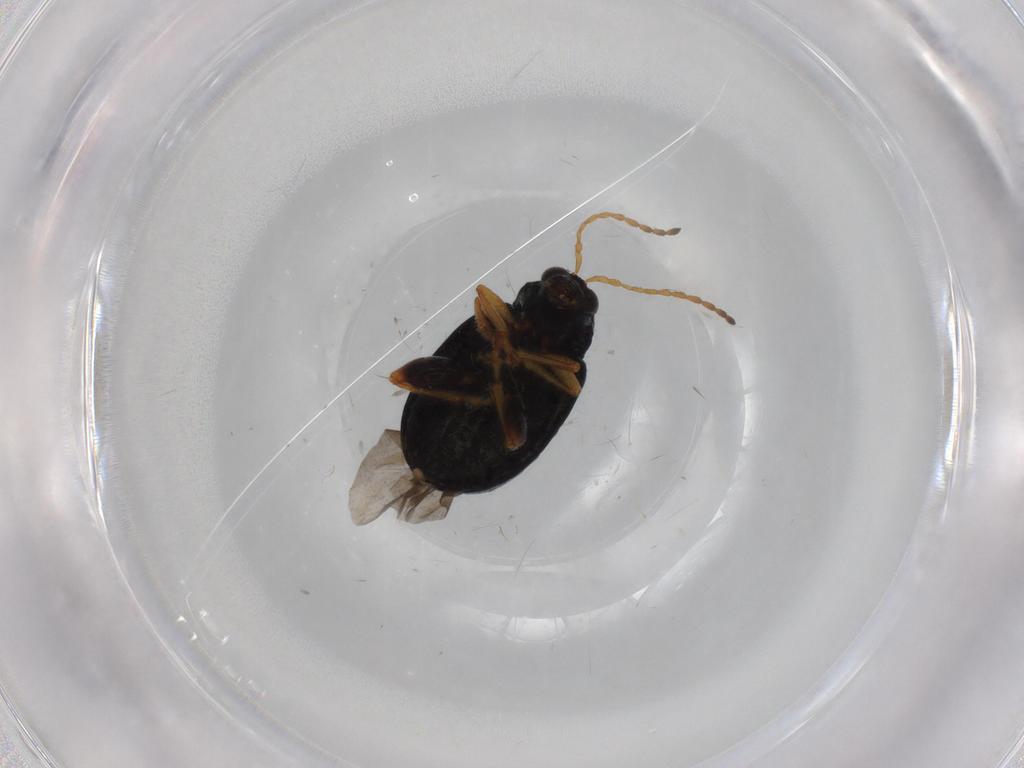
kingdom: Animalia
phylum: Arthropoda
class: Insecta
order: Coleoptera
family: Chrysomelidae
